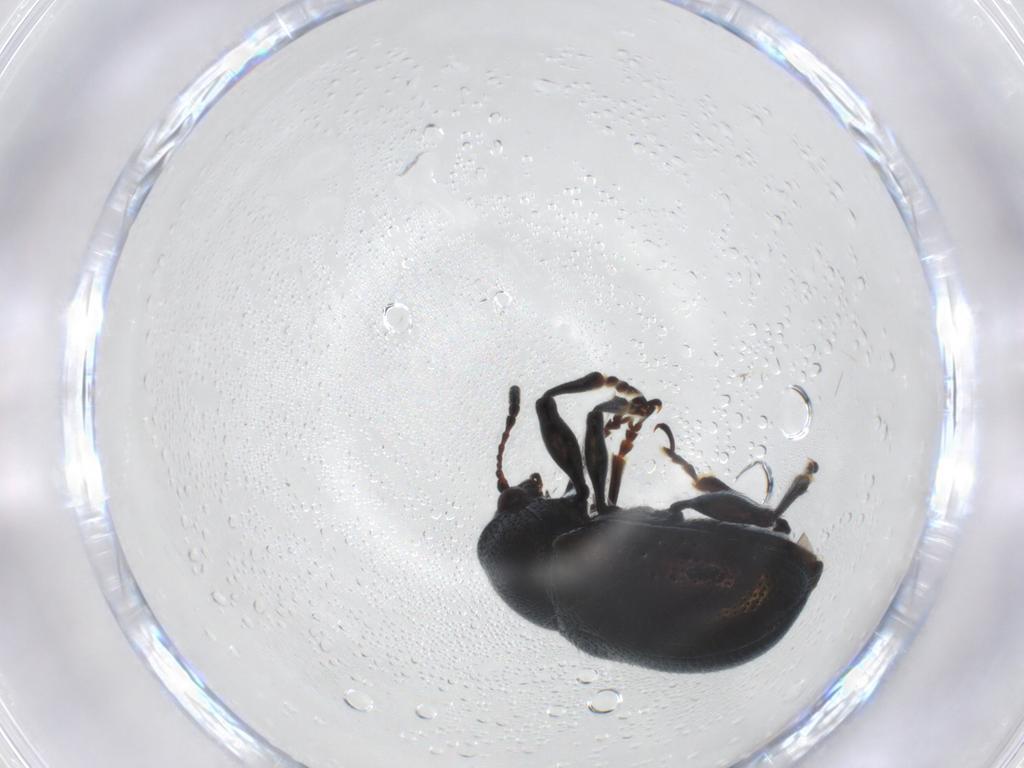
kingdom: Animalia
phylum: Arthropoda
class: Insecta
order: Coleoptera
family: Chrysomelidae
